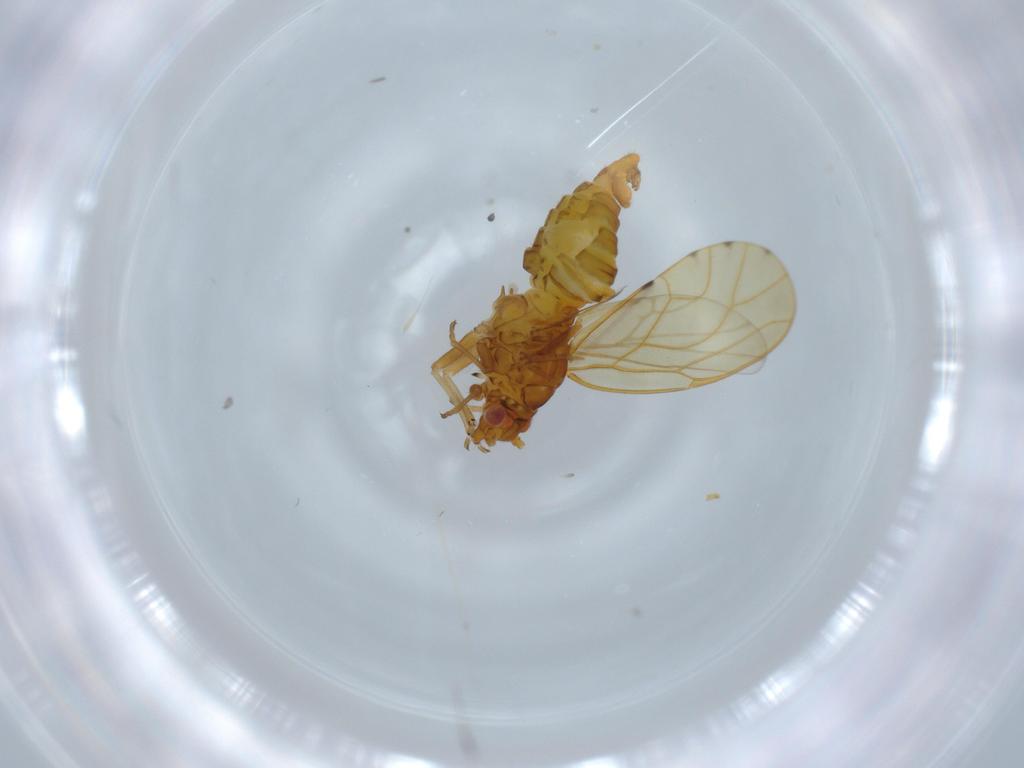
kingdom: Animalia
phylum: Arthropoda
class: Insecta
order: Hemiptera
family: Psylloidea_incertae_sedis
